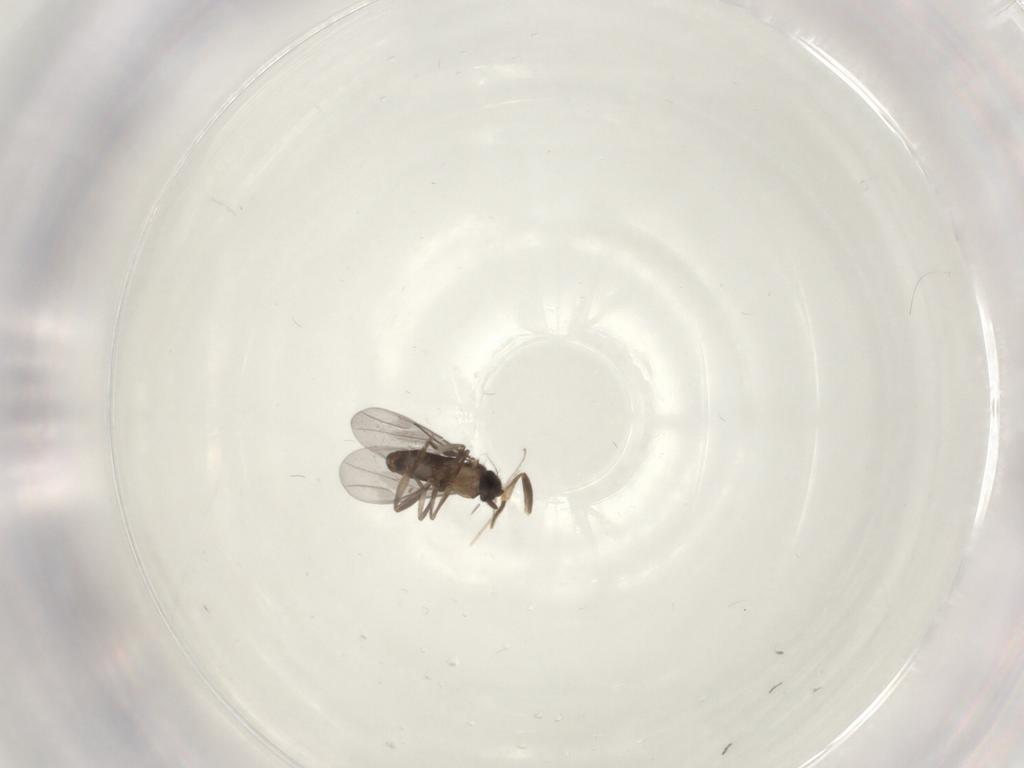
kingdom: Animalia
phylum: Arthropoda
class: Insecta
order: Diptera
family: Cecidomyiidae
